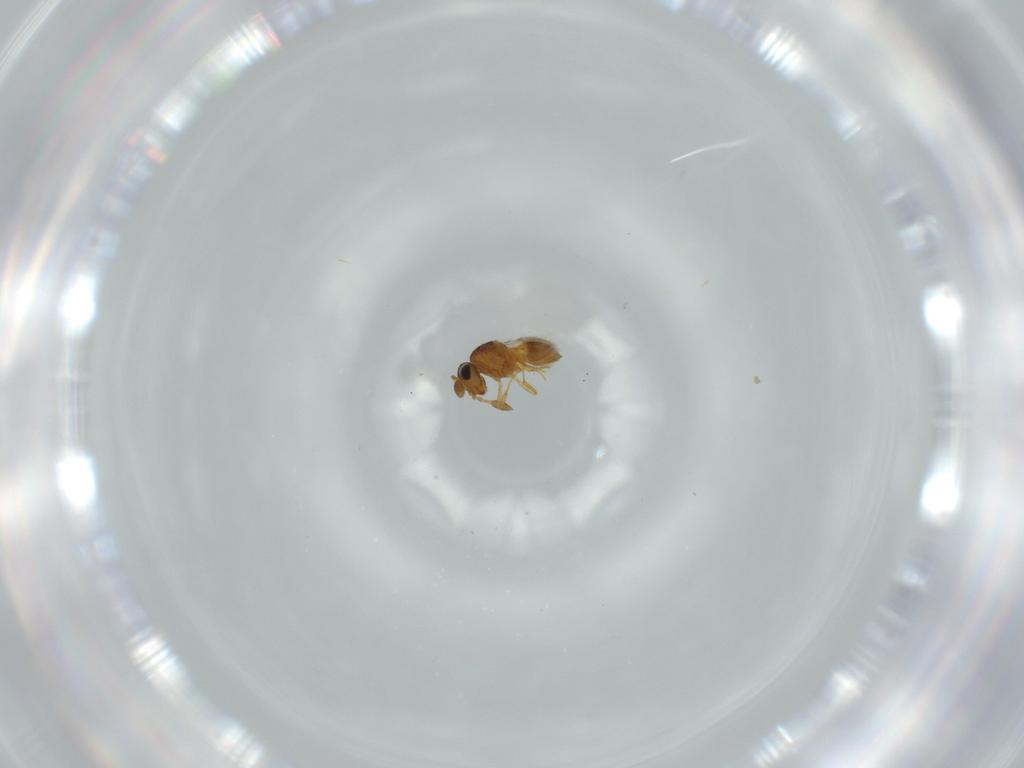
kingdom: Animalia
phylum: Arthropoda
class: Insecta
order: Hymenoptera
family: Scelionidae
